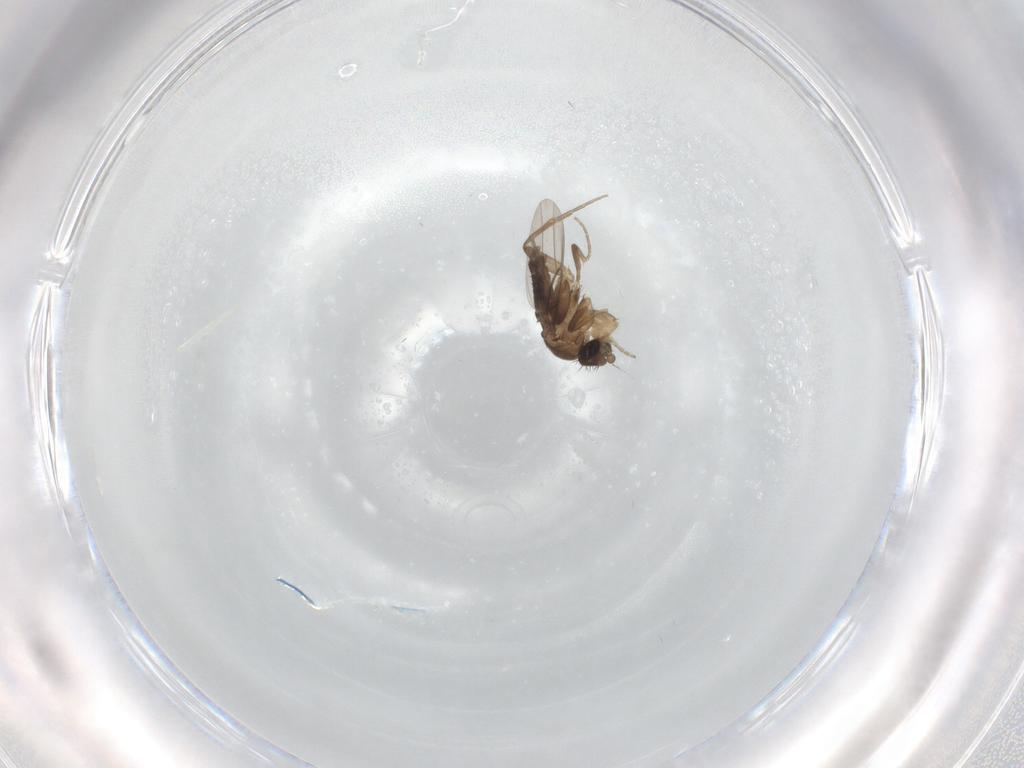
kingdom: Animalia
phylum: Arthropoda
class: Insecta
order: Diptera
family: Phoridae
